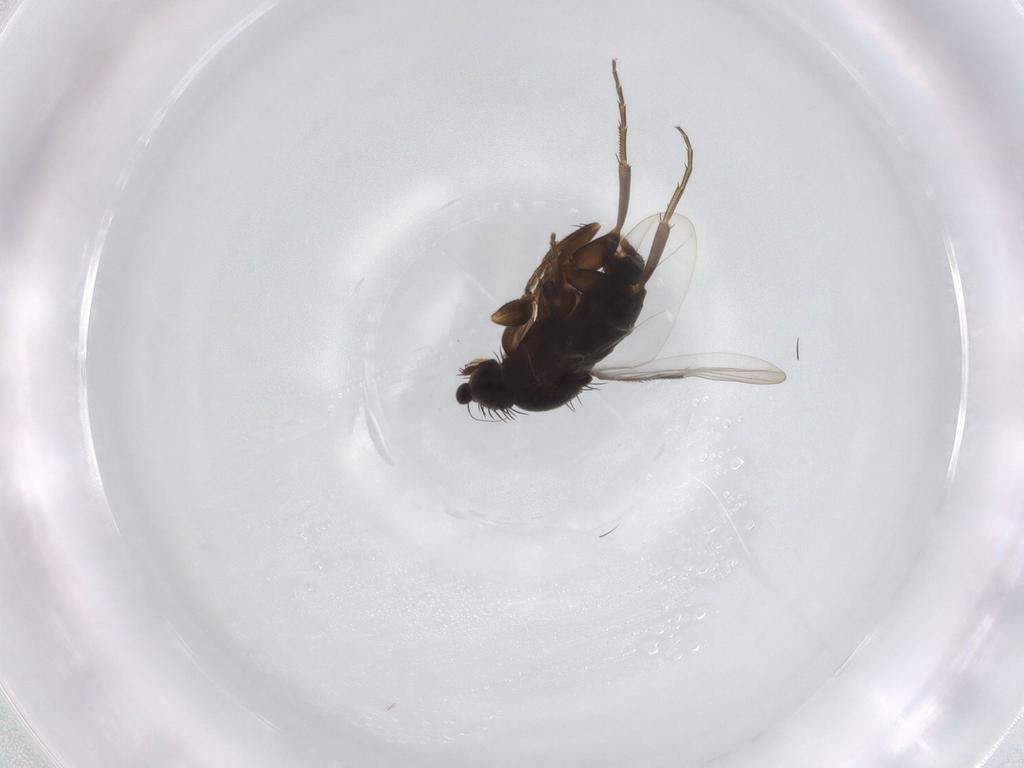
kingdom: Animalia
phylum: Arthropoda
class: Insecta
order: Diptera
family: Phoridae
